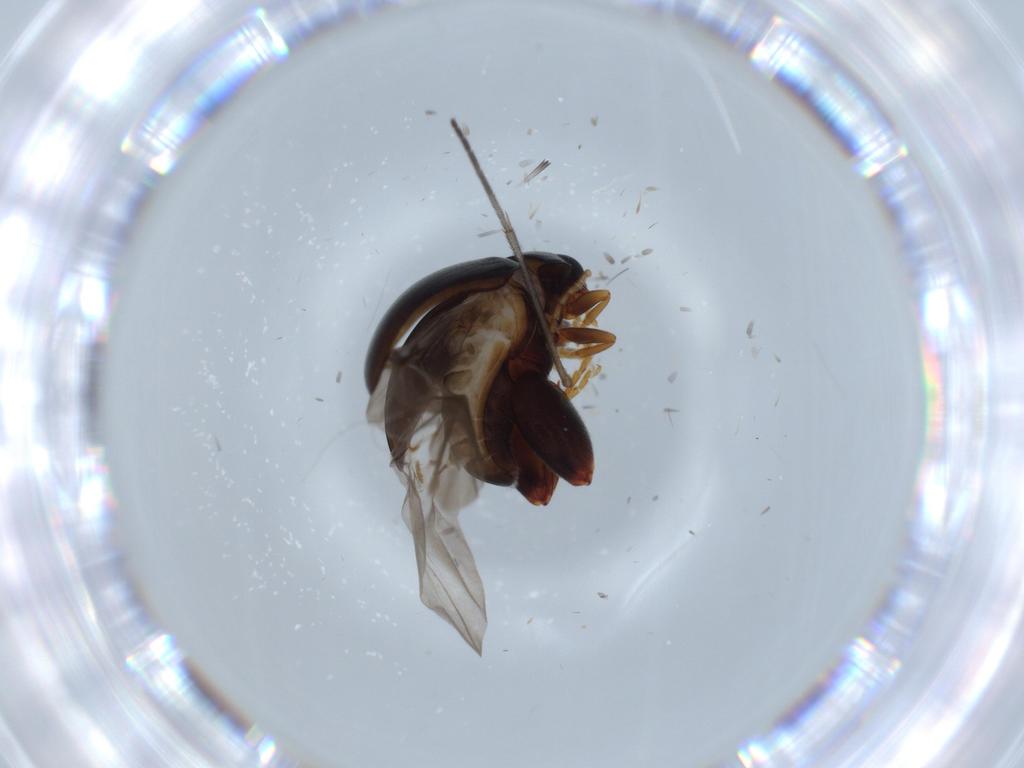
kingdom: Animalia
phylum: Arthropoda
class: Insecta
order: Coleoptera
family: Chrysomelidae
